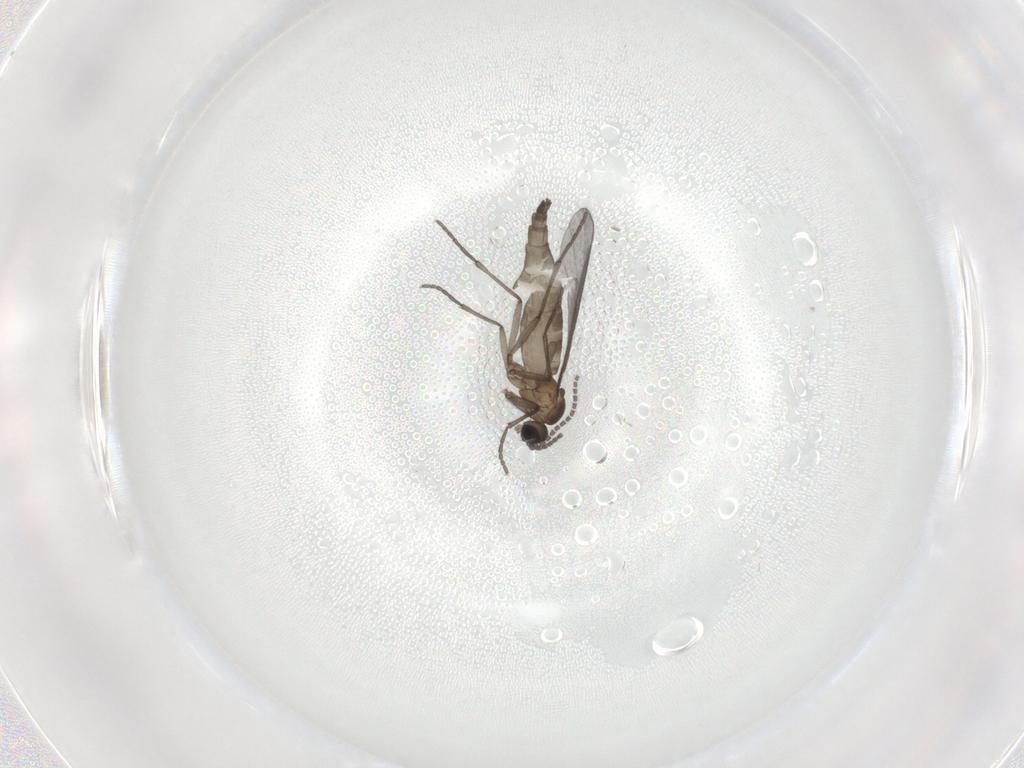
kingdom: Animalia
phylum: Arthropoda
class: Insecta
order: Diptera
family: Sciaridae
